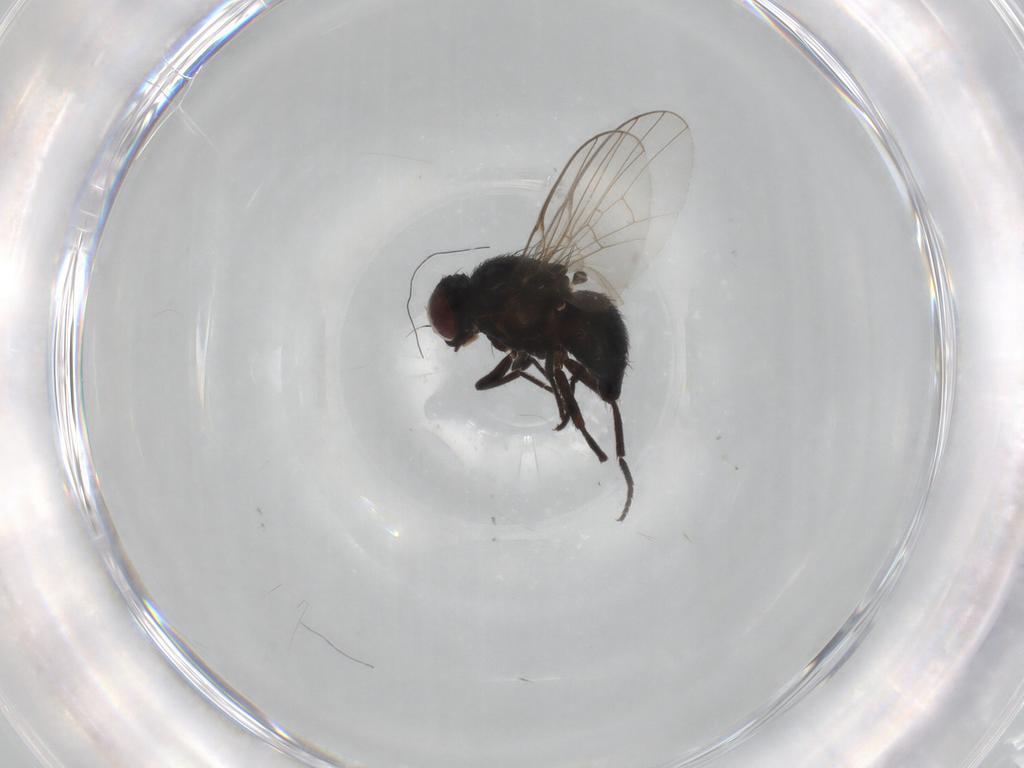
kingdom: Animalia
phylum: Arthropoda
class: Insecta
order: Diptera
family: Agromyzidae
